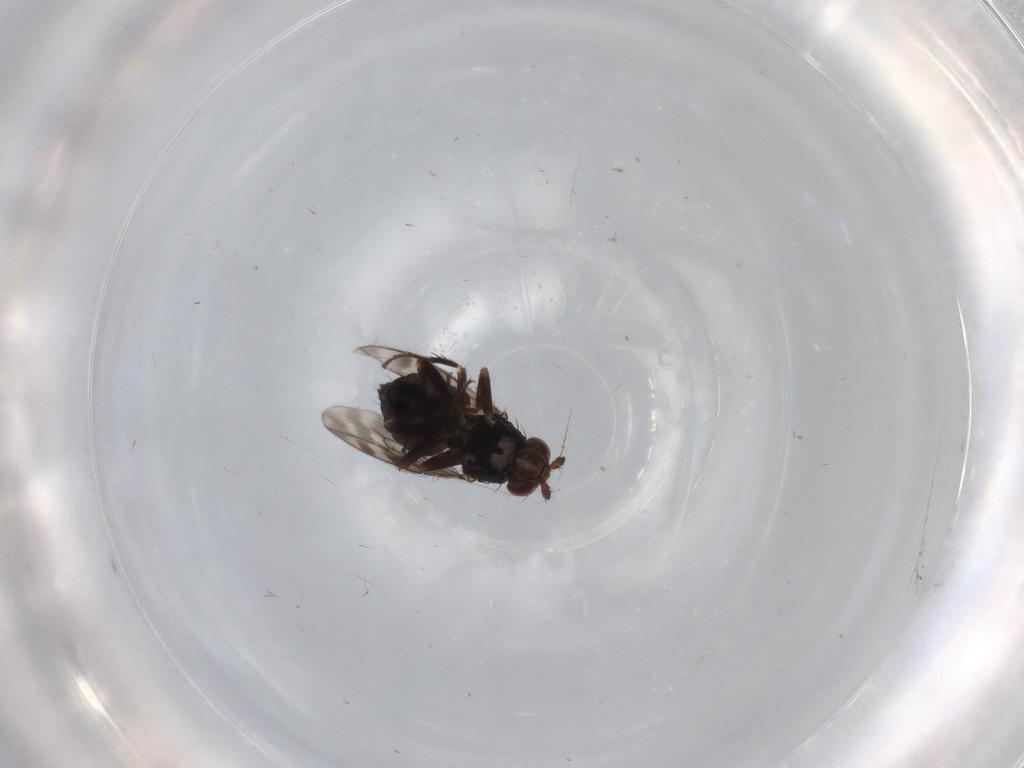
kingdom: Animalia
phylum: Arthropoda
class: Insecta
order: Diptera
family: Sphaeroceridae
